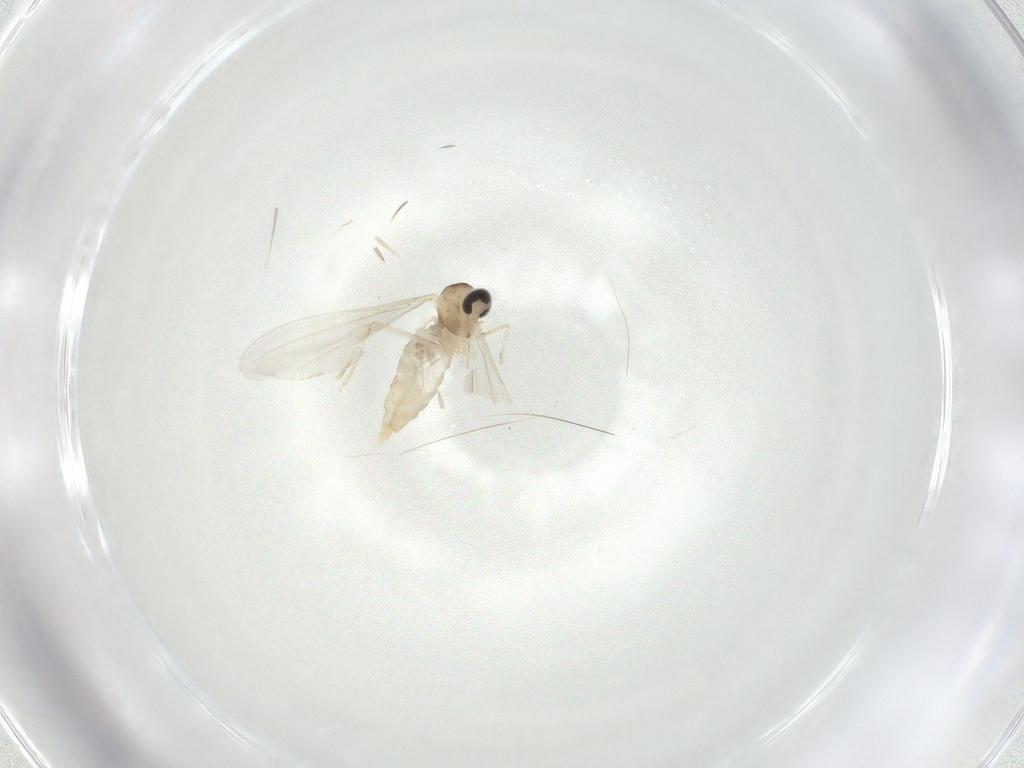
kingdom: Animalia
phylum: Arthropoda
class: Insecta
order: Diptera
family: Cecidomyiidae
